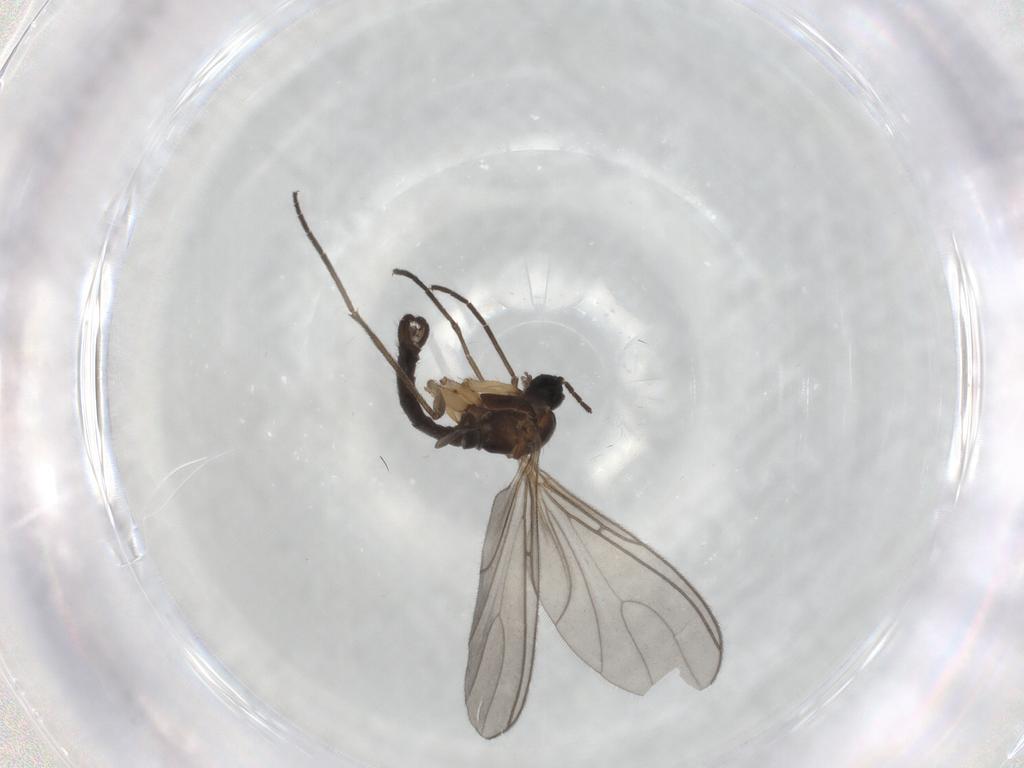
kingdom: Animalia
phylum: Arthropoda
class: Insecta
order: Diptera
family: Sciaridae
